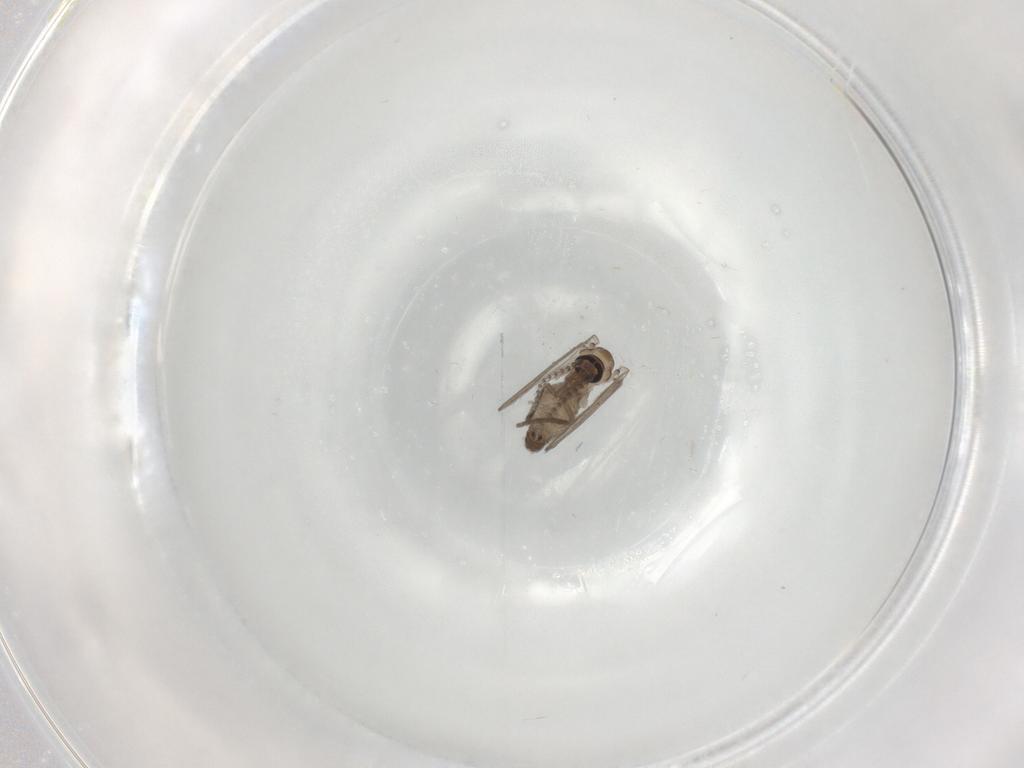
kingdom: Animalia
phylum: Arthropoda
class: Insecta
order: Diptera
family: Psychodidae
